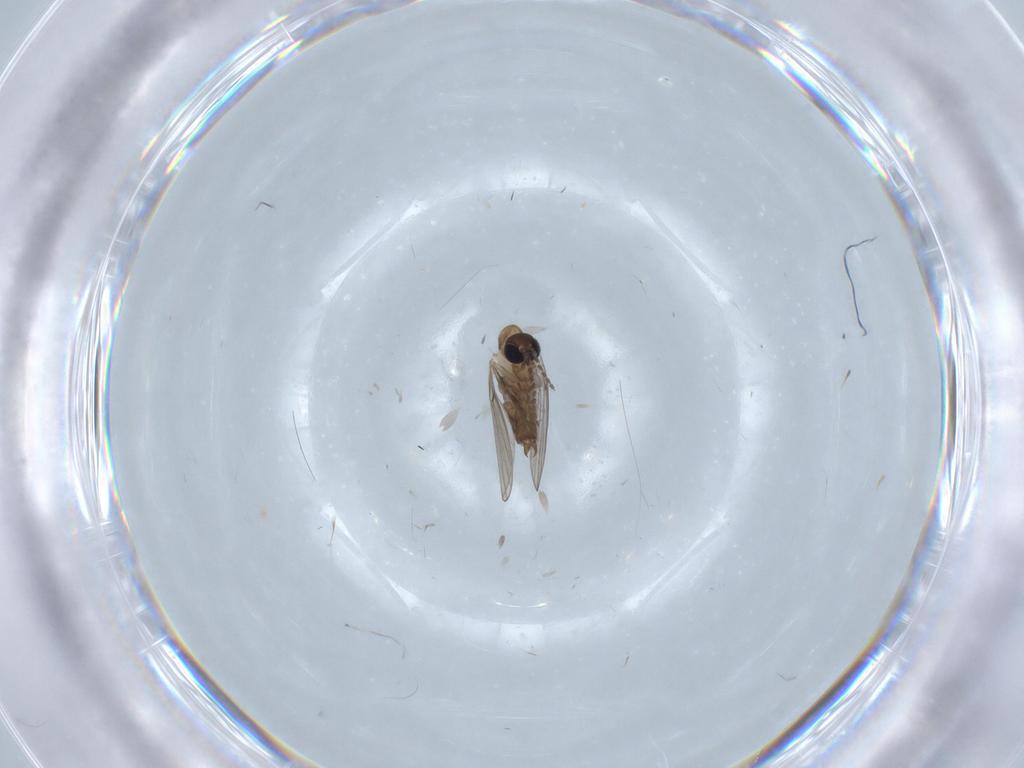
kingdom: Animalia
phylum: Arthropoda
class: Insecta
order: Diptera
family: Psychodidae
